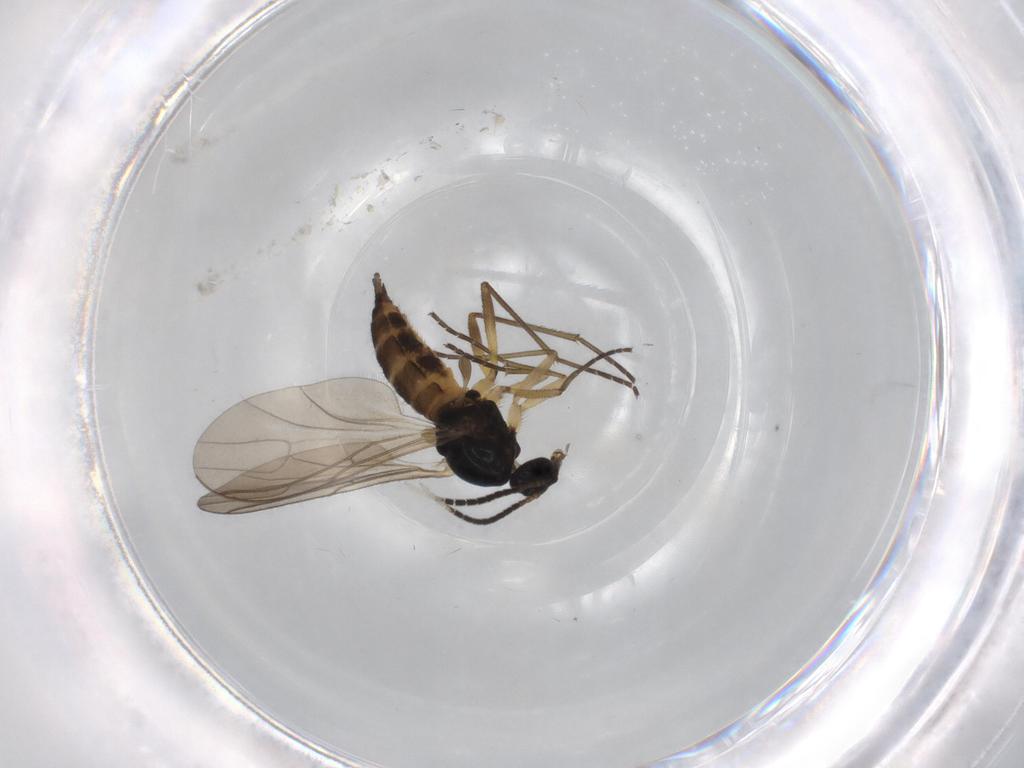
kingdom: Animalia
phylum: Arthropoda
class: Insecta
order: Diptera
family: Sciaridae
